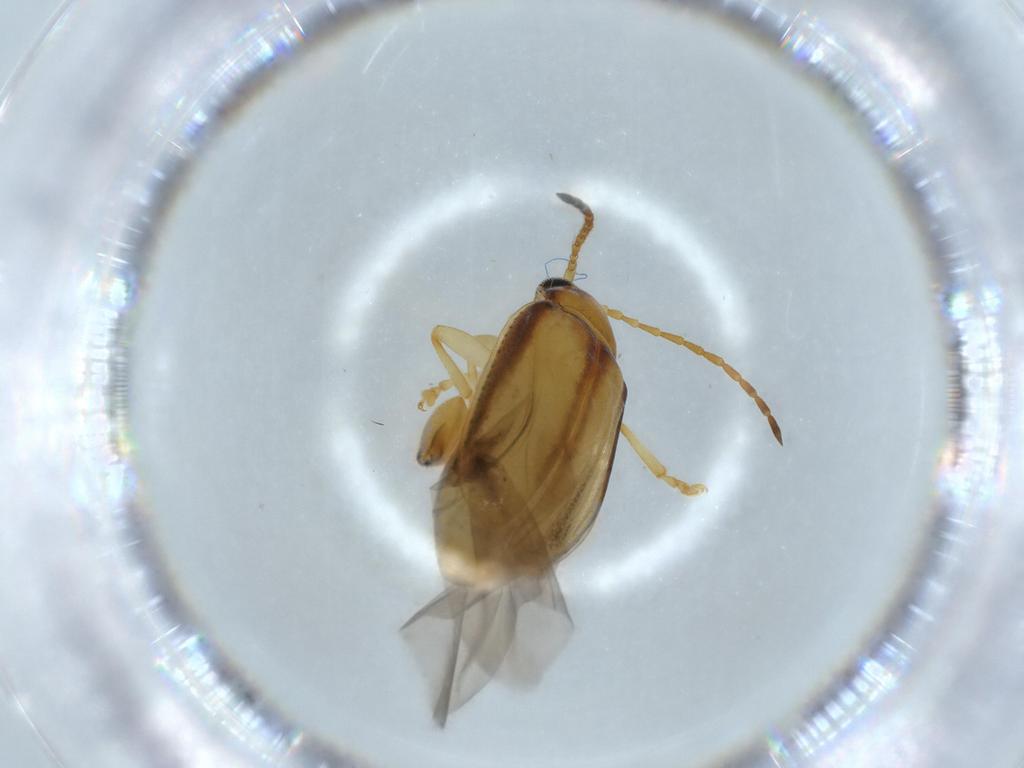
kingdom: Animalia
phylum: Arthropoda
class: Insecta
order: Coleoptera
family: Chrysomelidae
